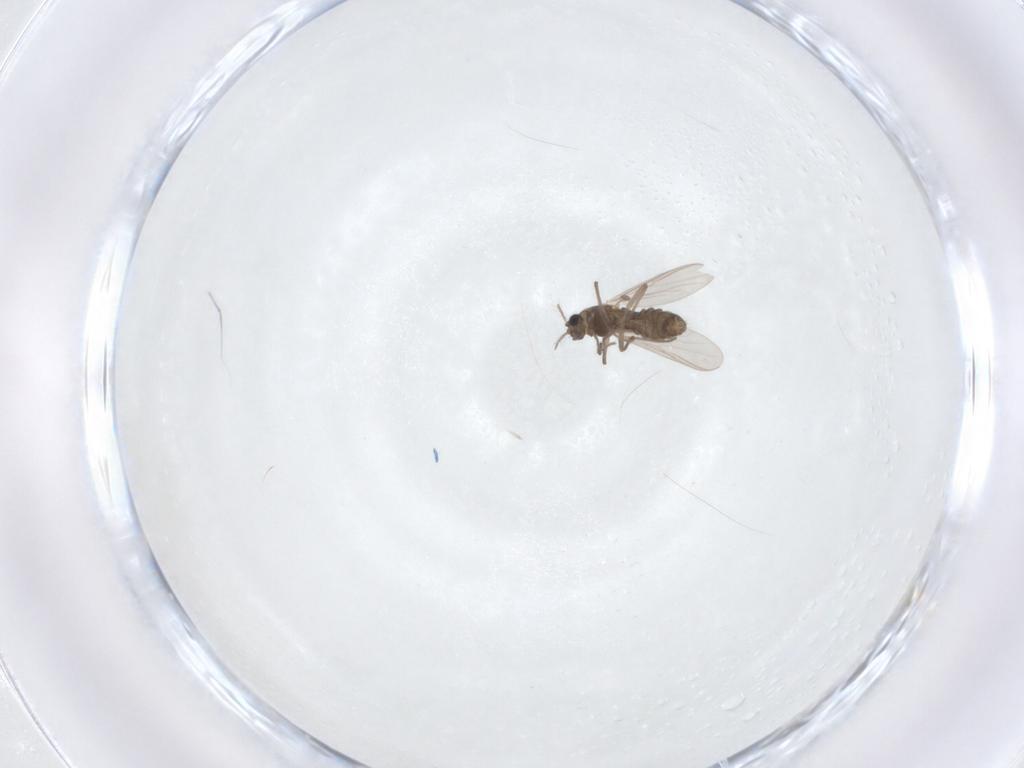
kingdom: Animalia
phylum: Arthropoda
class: Insecta
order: Diptera
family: Chironomidae
